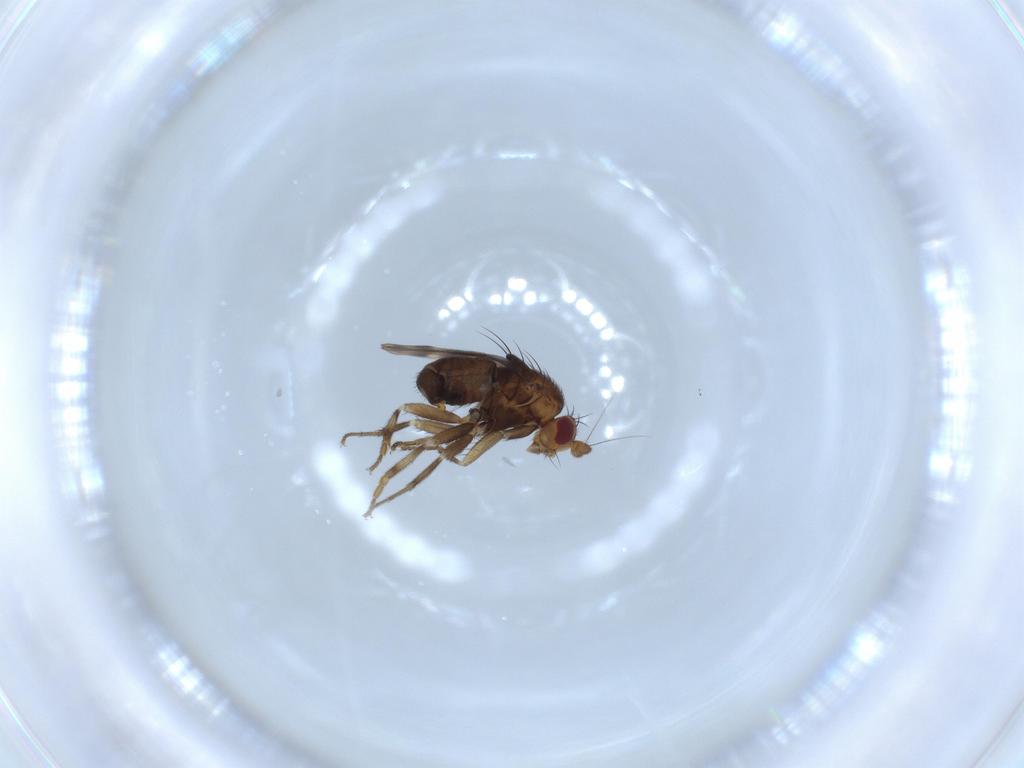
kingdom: Animalia
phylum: Arthropoda
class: Insecta
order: Diptera
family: Sphaeroceridae
